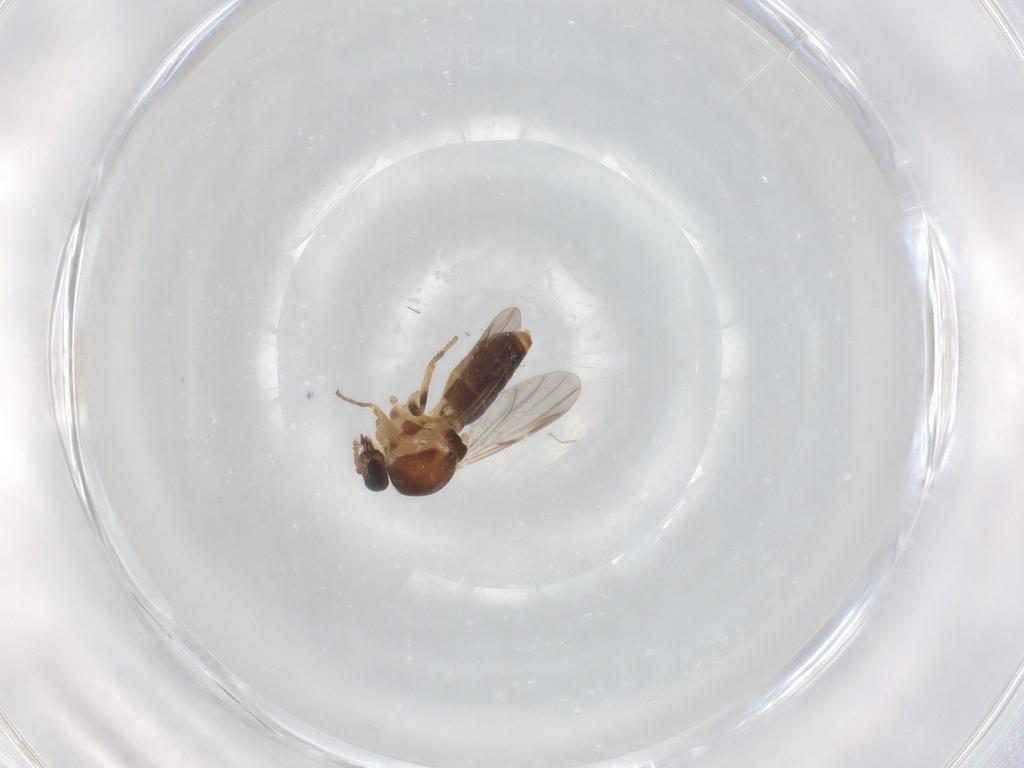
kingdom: Animalia
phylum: Arthropoda
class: Insecta
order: Diptera
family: Ceratopogonidae
